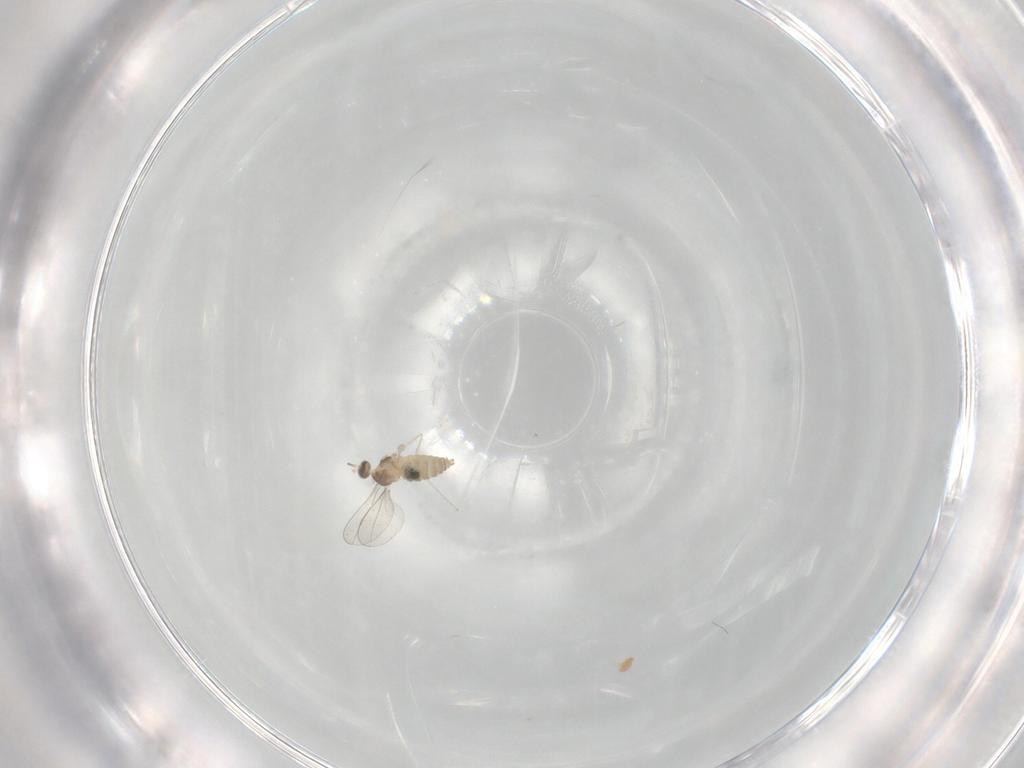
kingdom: Animalia
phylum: Arthropoda
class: Insecta
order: Diptera
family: Cecidomyiidae
